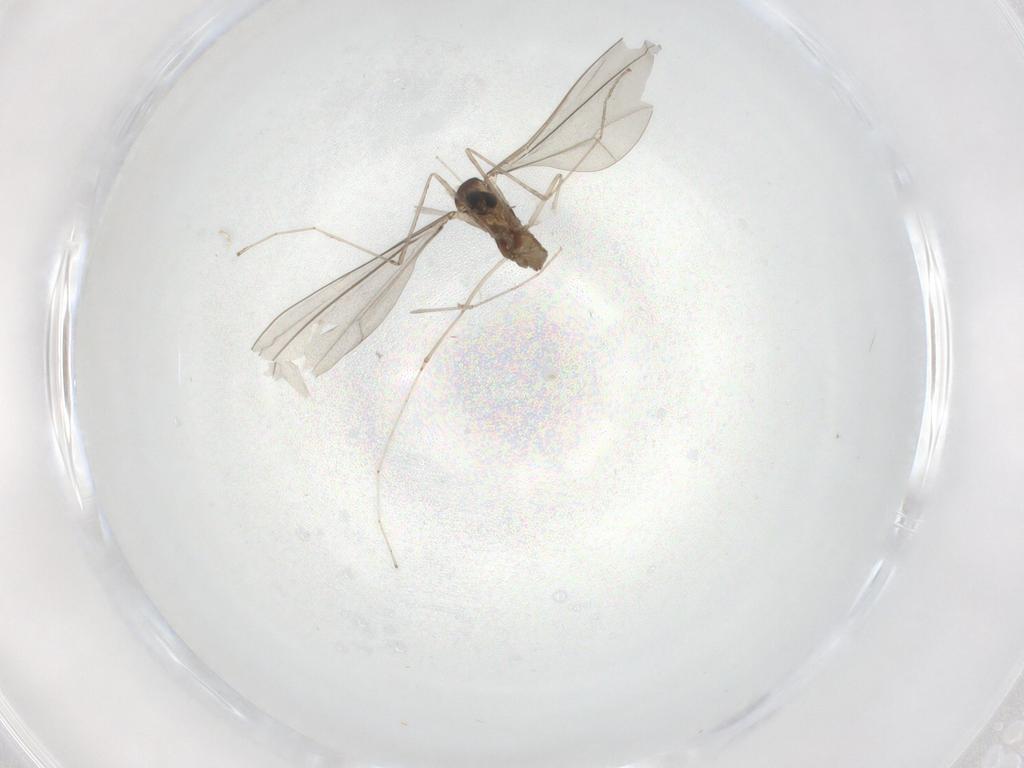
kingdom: Animalia
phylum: Arthropoda
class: Insecta
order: Diptera
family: Cecidomyiidae
